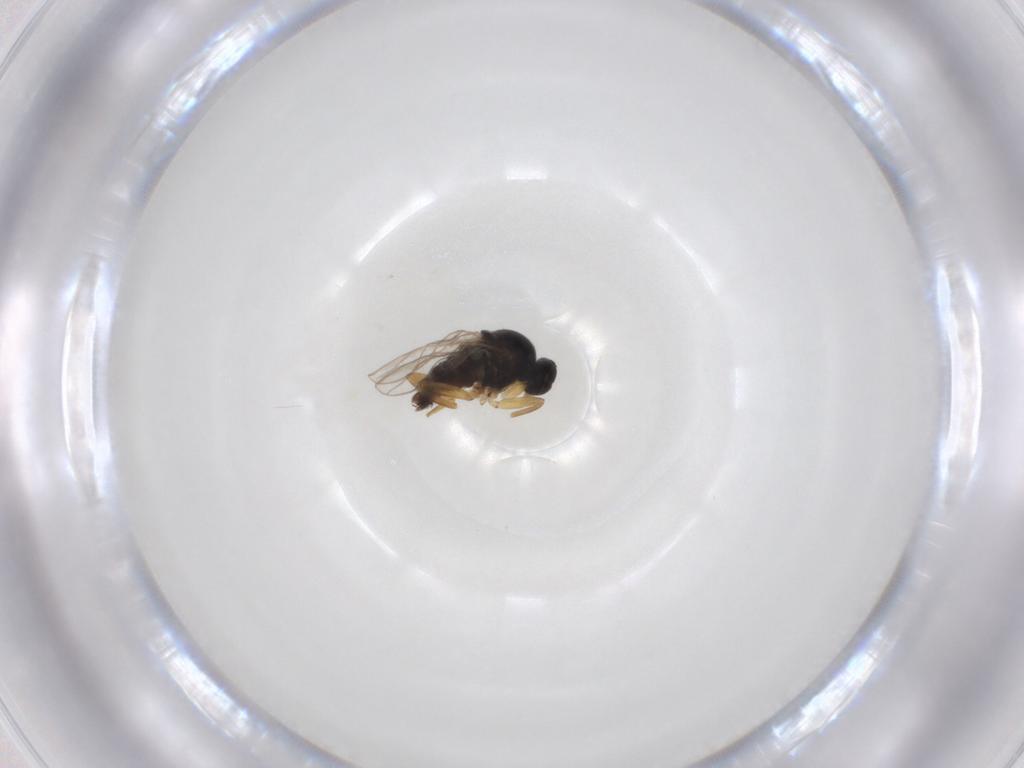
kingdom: Animalia
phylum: Arthropoda
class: Insecta
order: Diptera
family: Hybotidae
